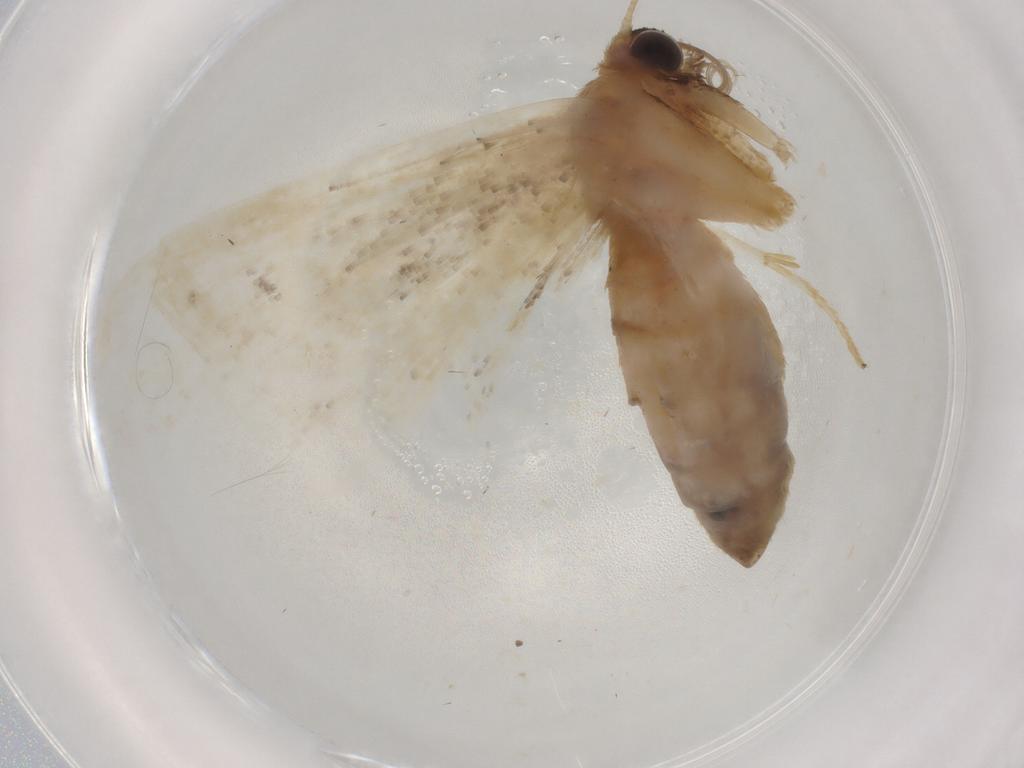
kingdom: Animalia
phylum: Arthropoda
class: Insecta
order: Lepidoptera
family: Geometridae
